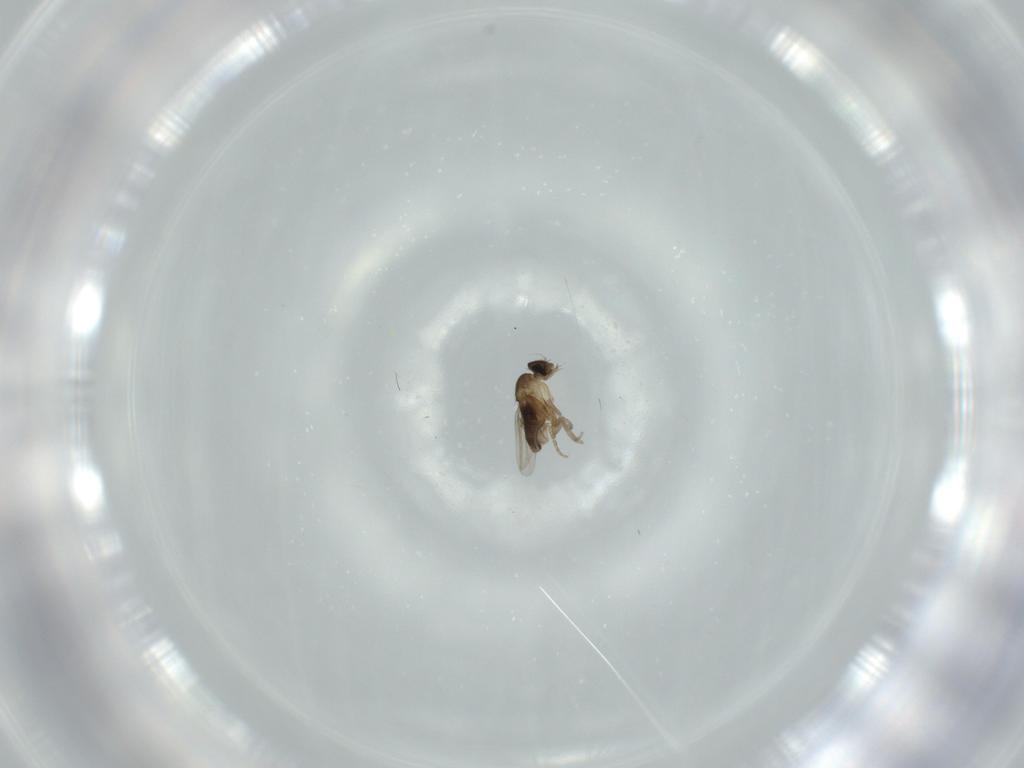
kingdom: Animalia
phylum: Arthropoda
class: Insecta
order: Diptera
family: Phoridae
